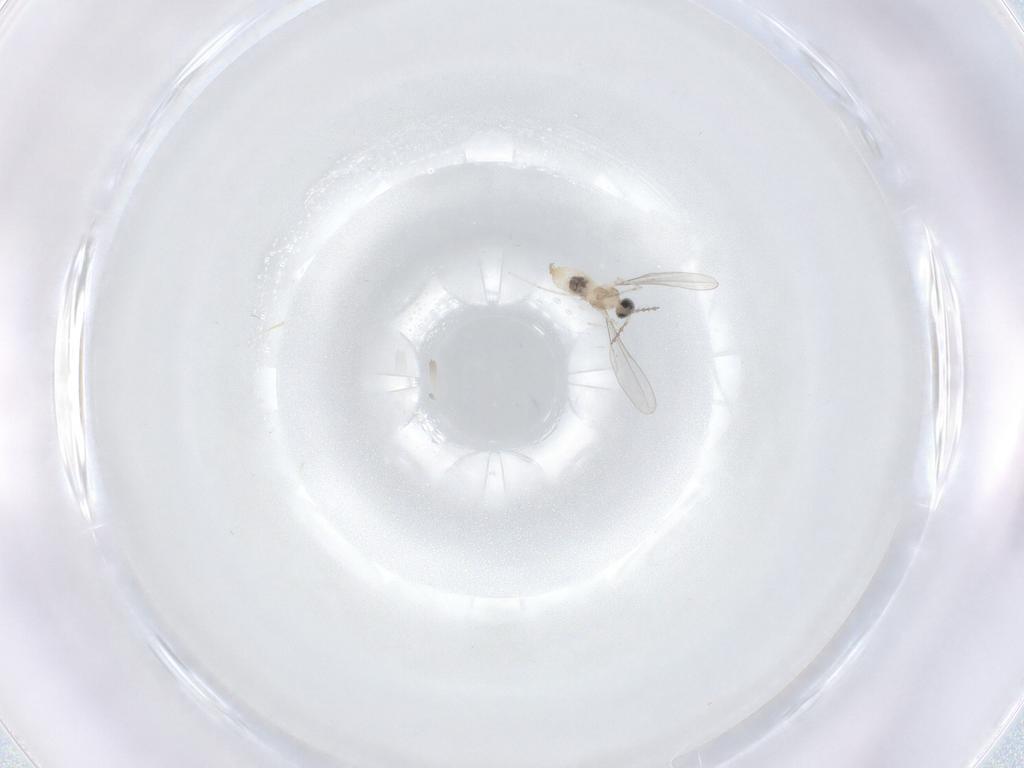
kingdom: Animalia
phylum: Arthropoda
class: Insecta
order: Diptera
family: Cecidomyiidae
